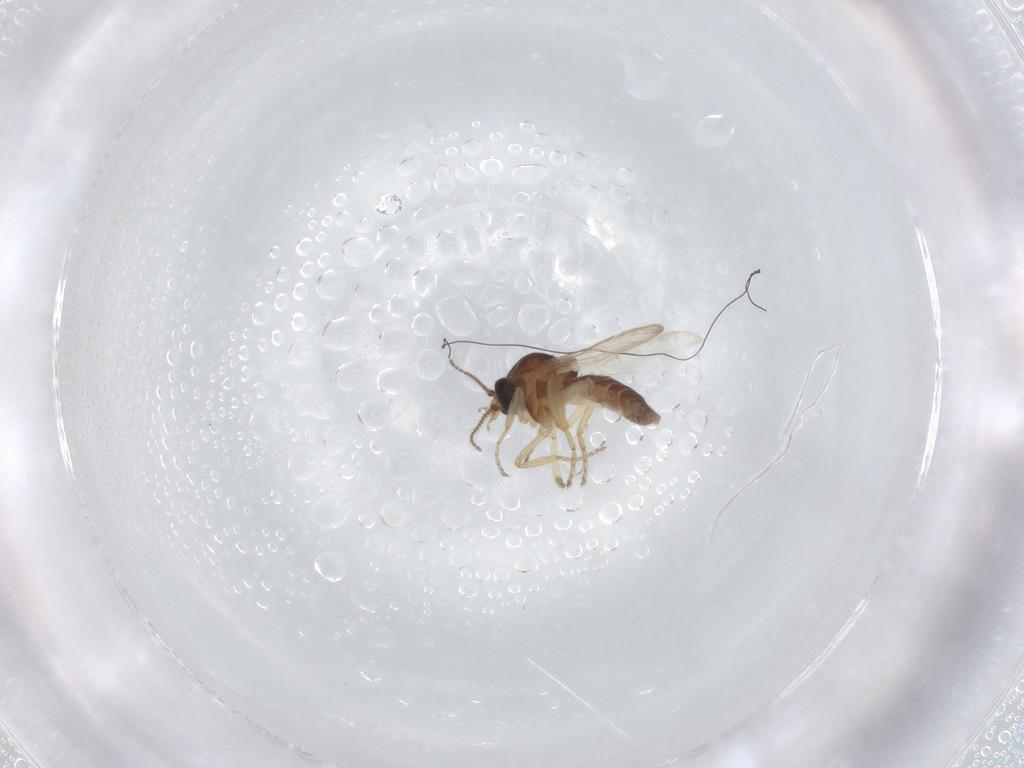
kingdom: Animalia
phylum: Arthropoda
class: Insecta
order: Diptera
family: Ceratopogonidae
